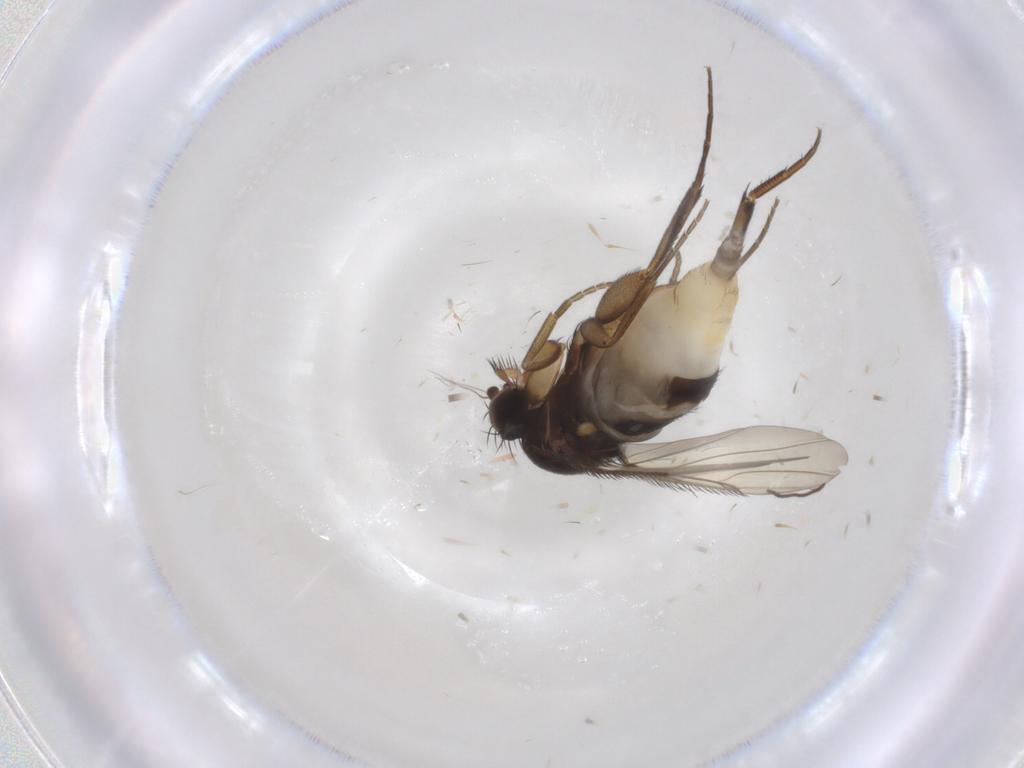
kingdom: Animalia
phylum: Arthropoda
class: Insecta
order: Diptera
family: Phoridae
